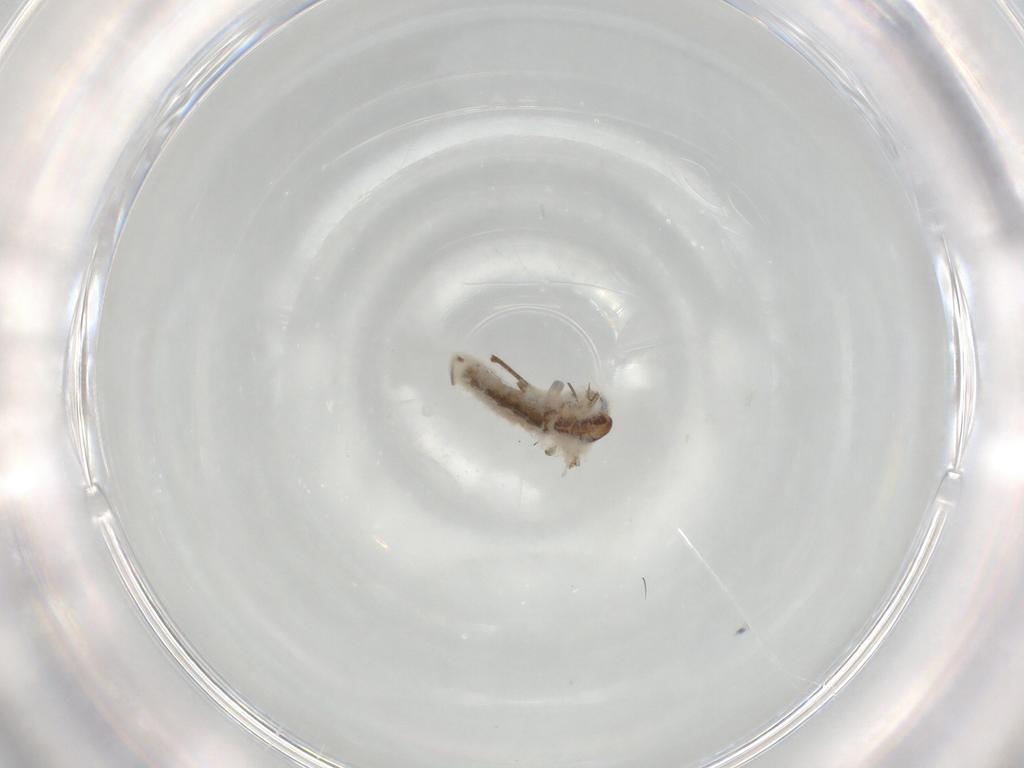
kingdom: Animalia
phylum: Arthropoda
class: Insecta
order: Diptera
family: Cecidomyiidae
